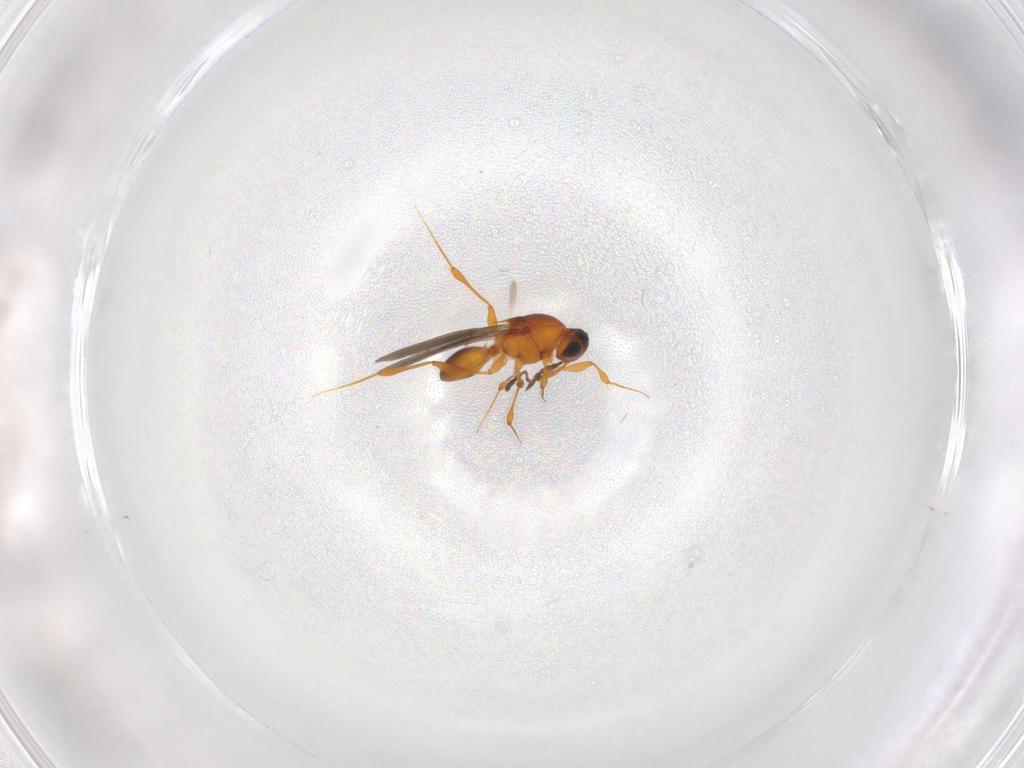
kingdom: Animalia
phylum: Arthropoda
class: Insecta
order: Hymenoptera
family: Platygastridae
